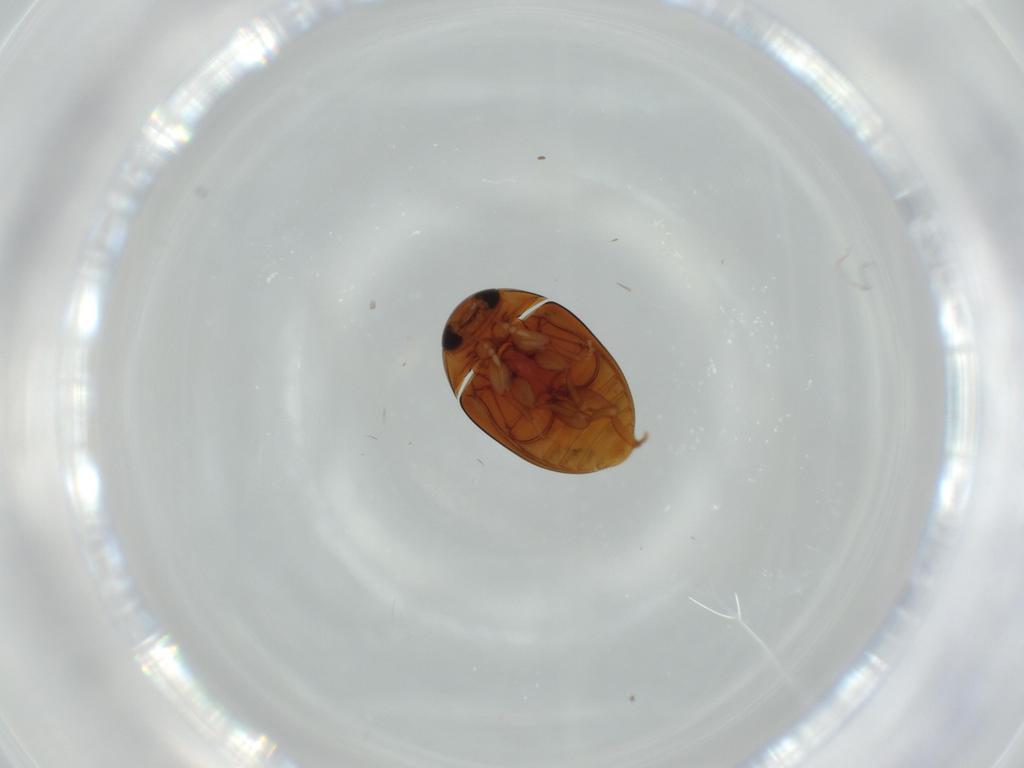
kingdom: Animalia
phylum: Arthropoda
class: Insecta
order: Coleoptera
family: Phalacridae
